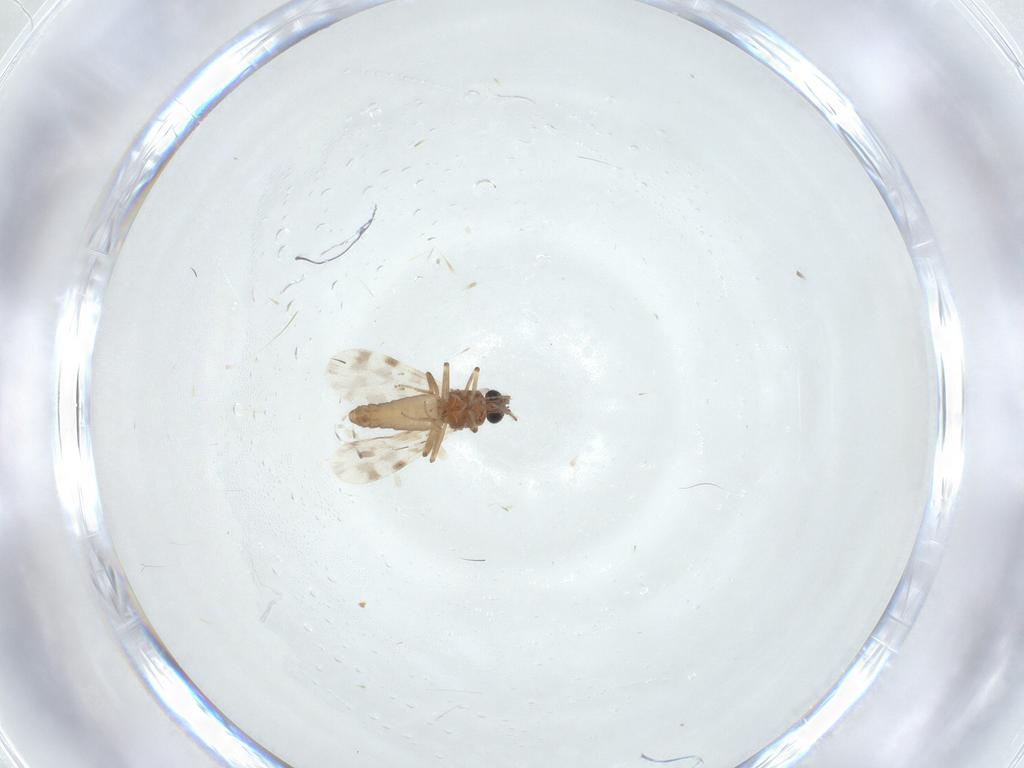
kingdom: Animalia
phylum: Arthropoda
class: Insecta
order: Diptera
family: Ceratopogonidae
